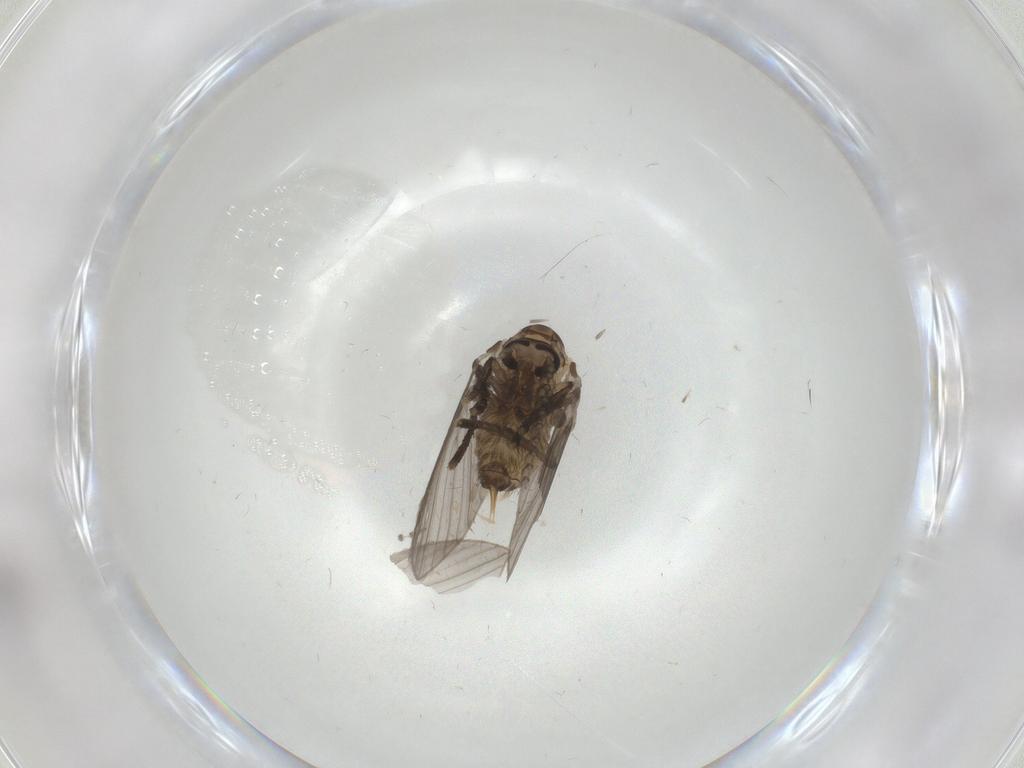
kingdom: Animalia
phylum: Arthropoda
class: Insecta
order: Diptera
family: Psychodidae
